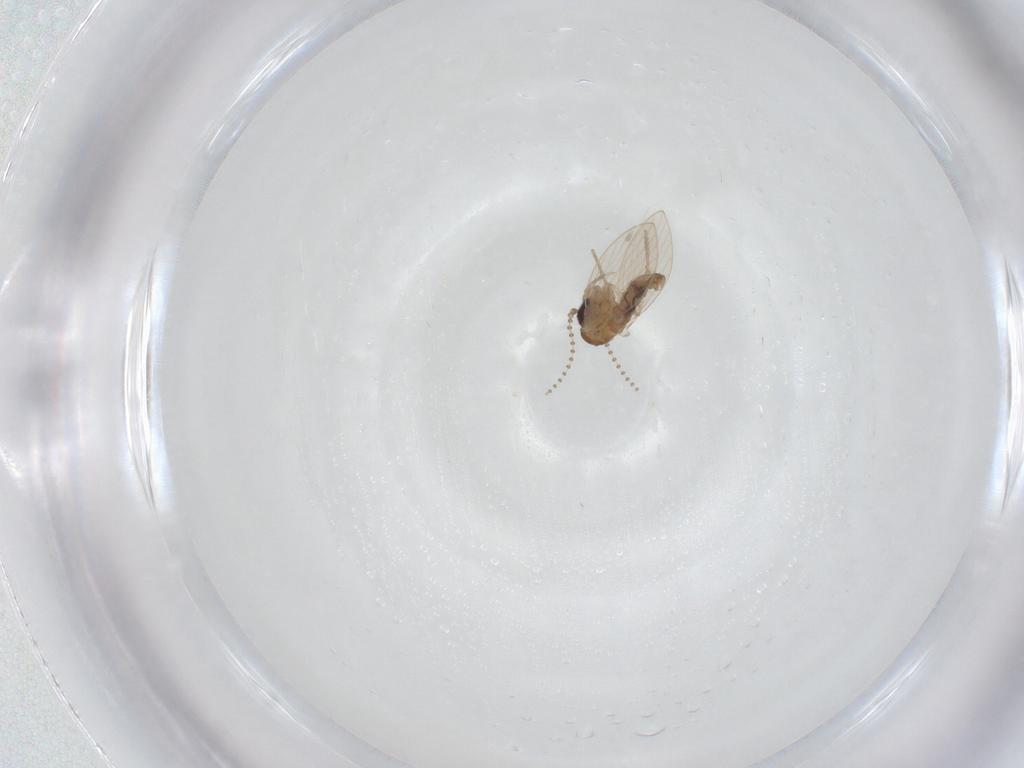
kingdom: Animalia
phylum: Arthropoda
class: Insecta
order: Diptera
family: Psychodidae
